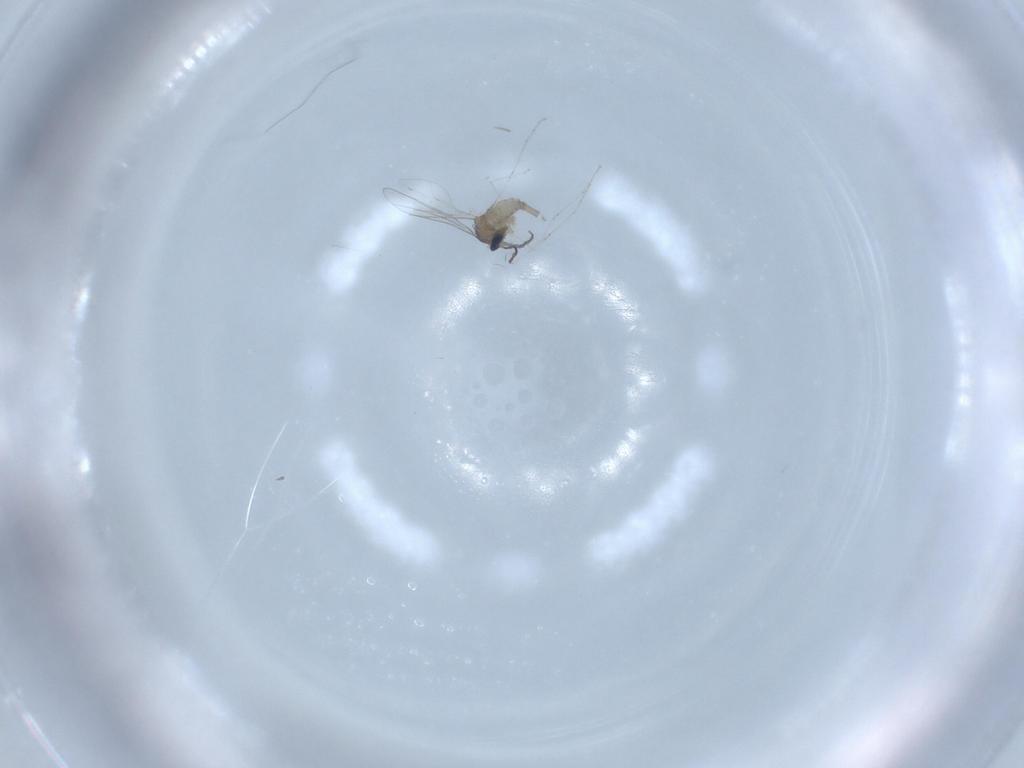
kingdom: Animalia
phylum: Arthropoda
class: Insecta
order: Diptera
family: Cecidomyiidae
